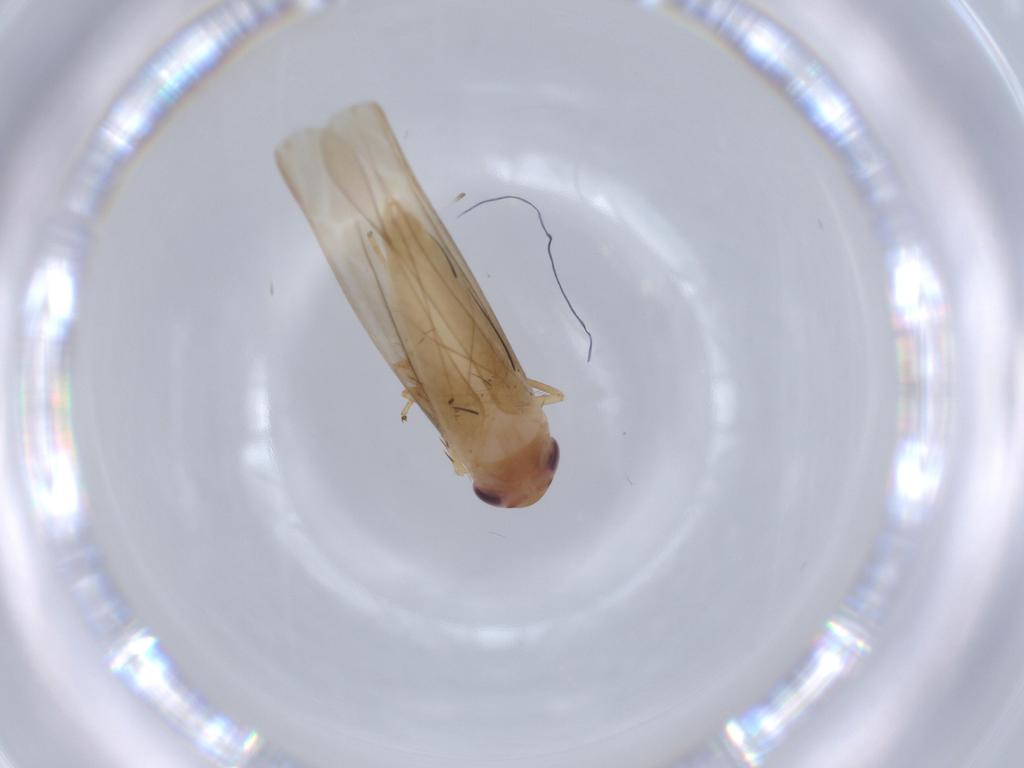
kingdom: Animalia
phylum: Arthropoda
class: Insecta
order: Hemiptera
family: Cicadellidae
